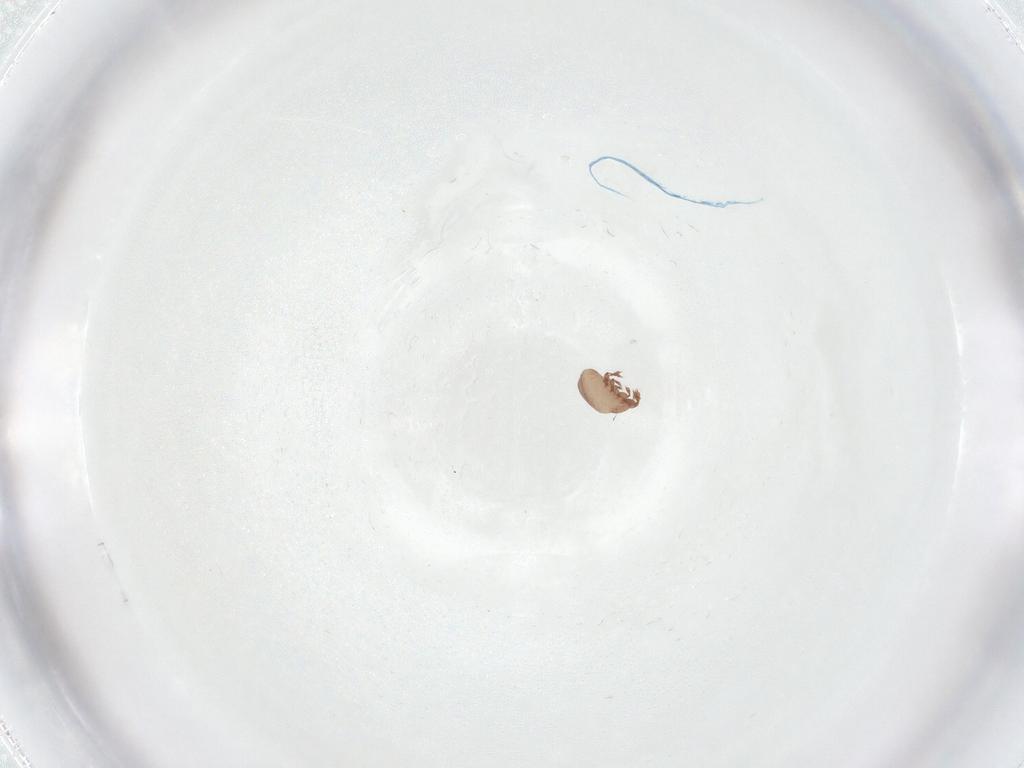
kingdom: Animalia
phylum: Arthropoda
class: Arachnida
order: Sarcoptiformes
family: Eremaeidae
